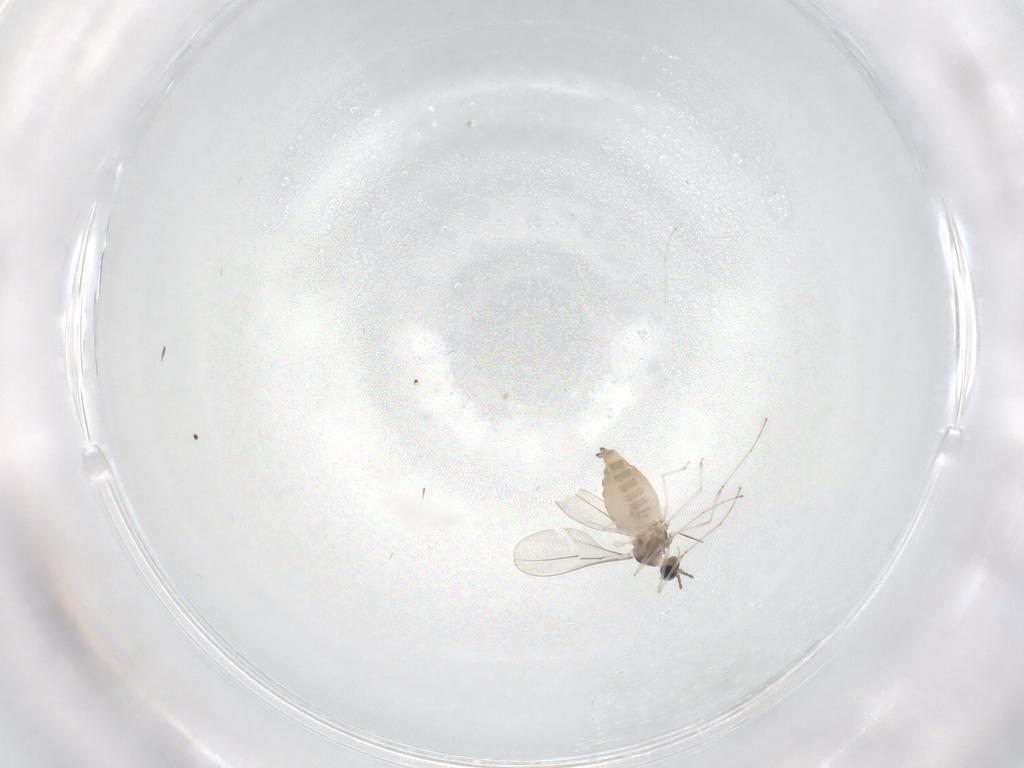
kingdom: Animalia
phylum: Arthropoda
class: Insecta
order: Diptera
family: Cecidomyiidae
